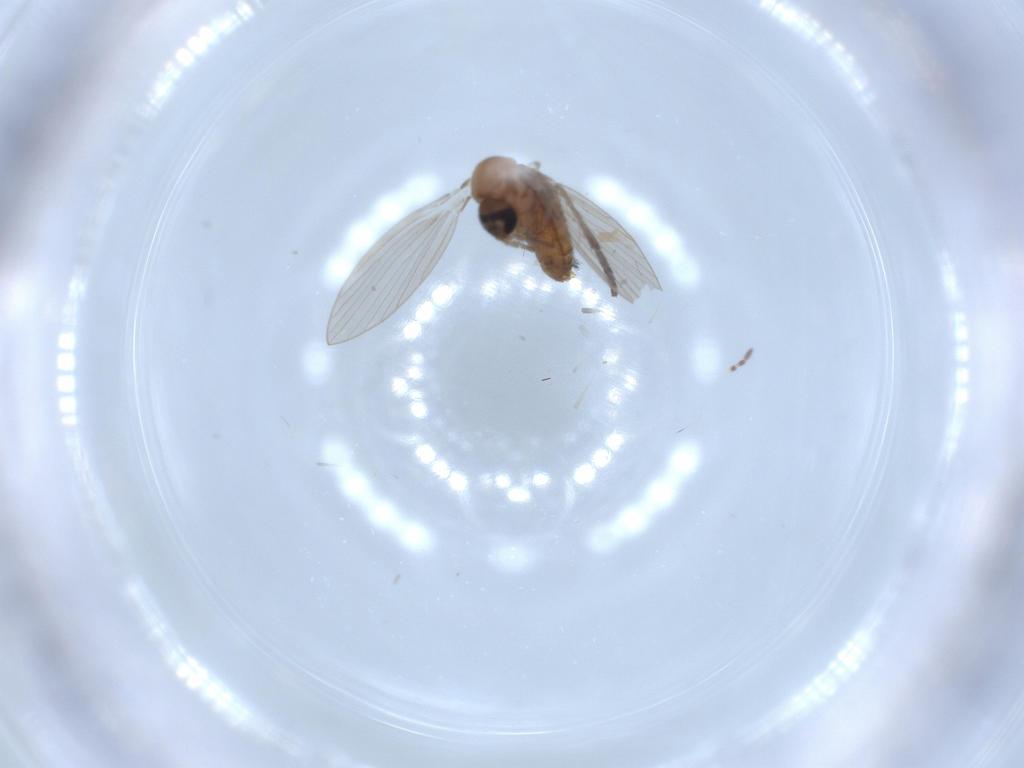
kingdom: Animalia
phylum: Arthropoda
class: Insecta
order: Diptera
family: Psychodidae
